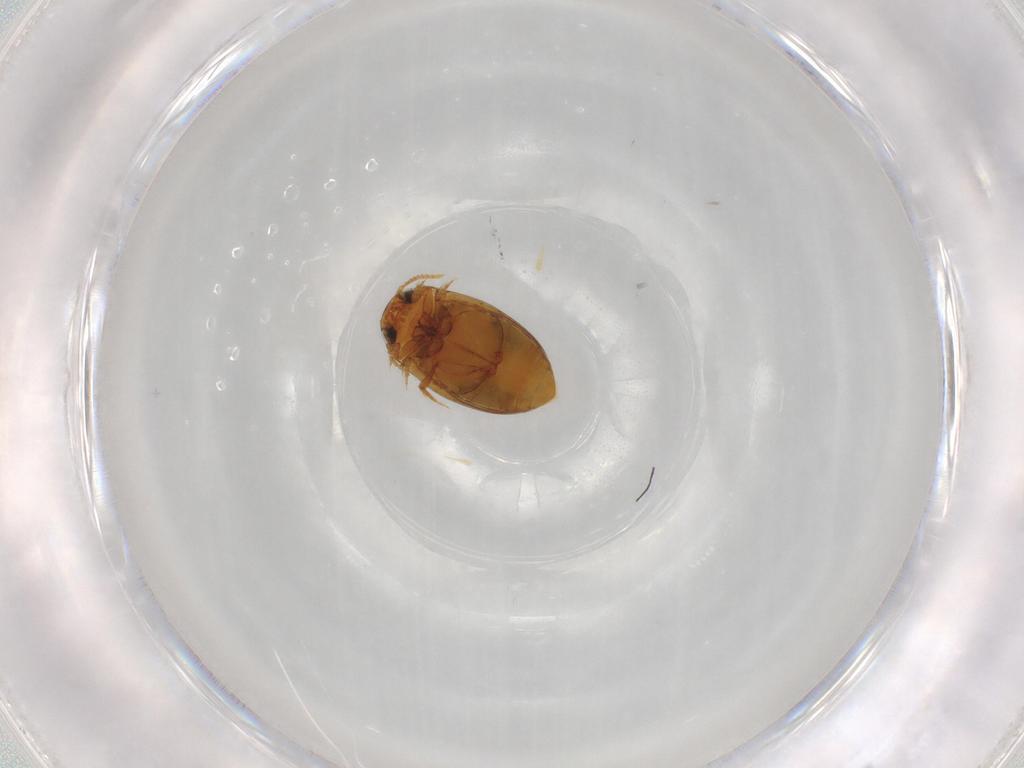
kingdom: Animalia
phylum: Arthropoda
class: Insecta
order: Coleoptera
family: Dytiscidae
